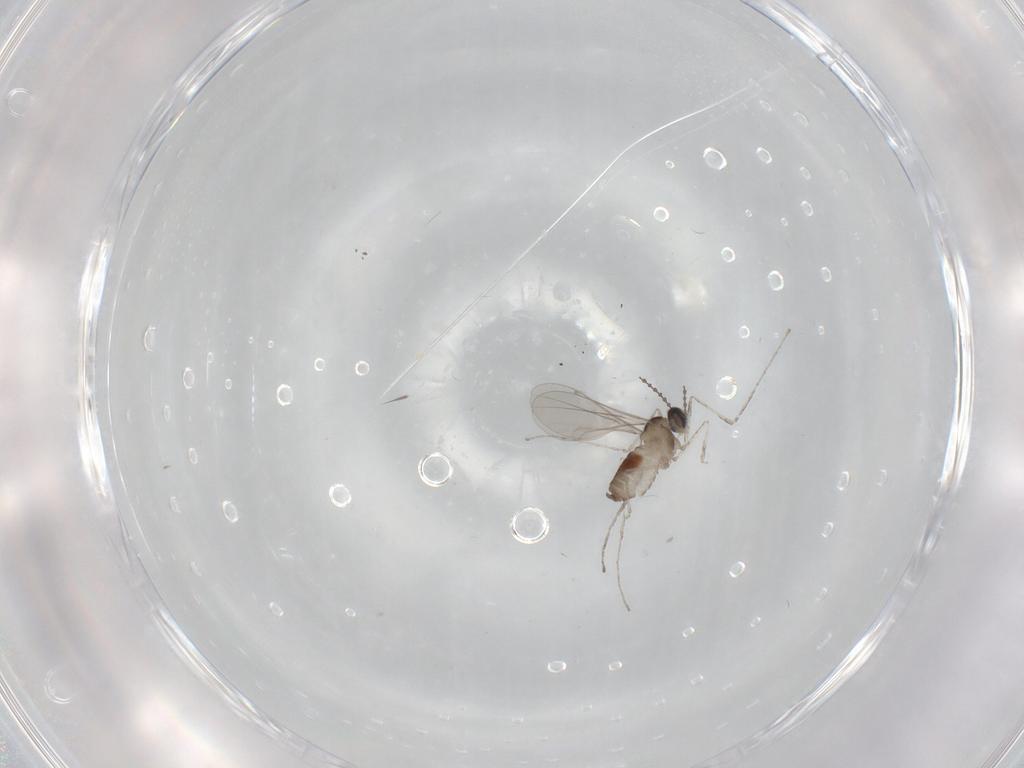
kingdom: Animalia
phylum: Arthropoda
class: Insecta
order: Diptera
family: Cecidomyiidae
